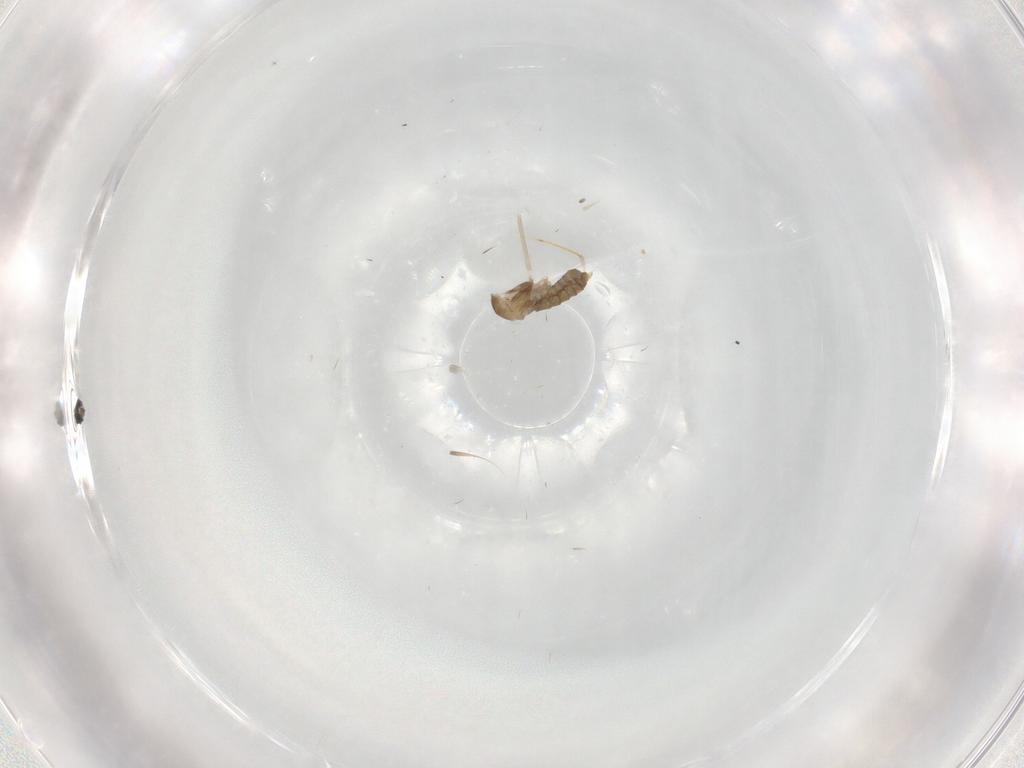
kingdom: Animalia
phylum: Arthropoda
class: Insecta
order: Diptera
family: Cecidomyiidae
